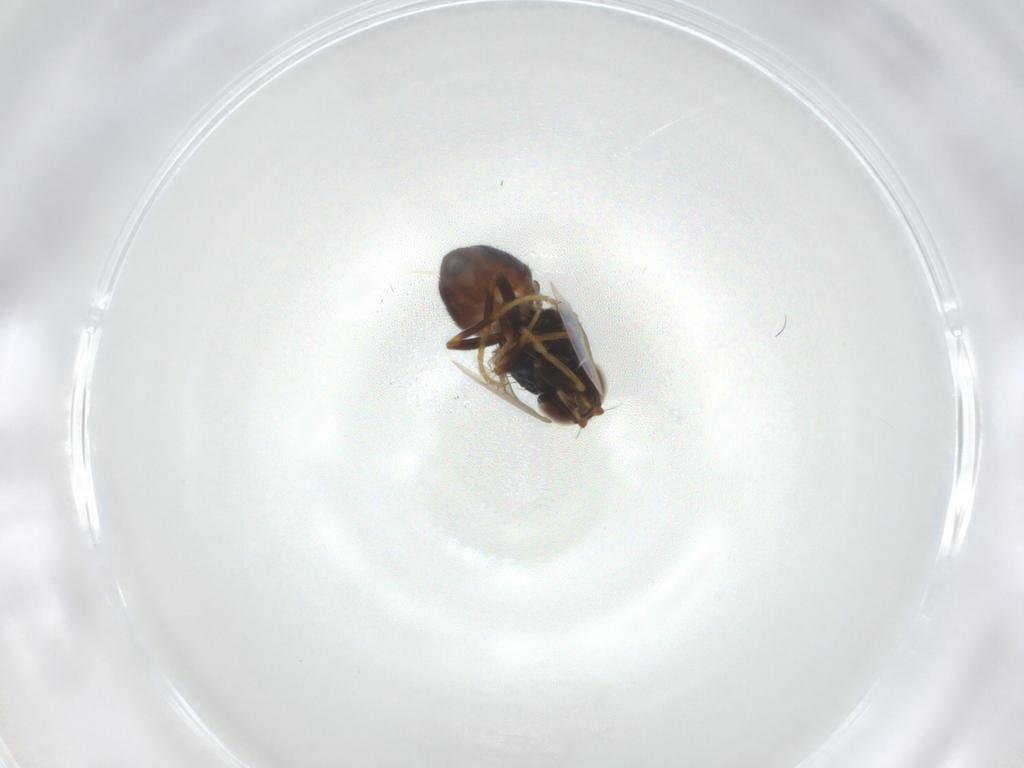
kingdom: Animalia
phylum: Arthropoda
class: Insecta
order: Diptera
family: Chloropidae
